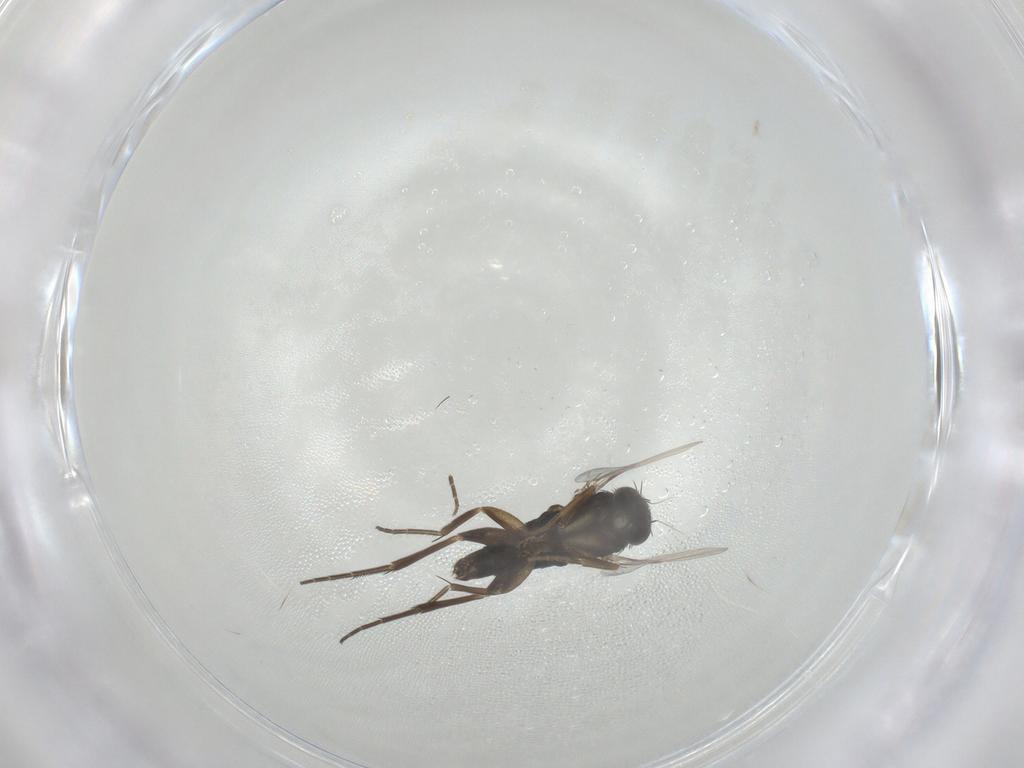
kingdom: Animalia
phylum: Arthropoda
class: Insecta
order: Diptera
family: Phoridae
